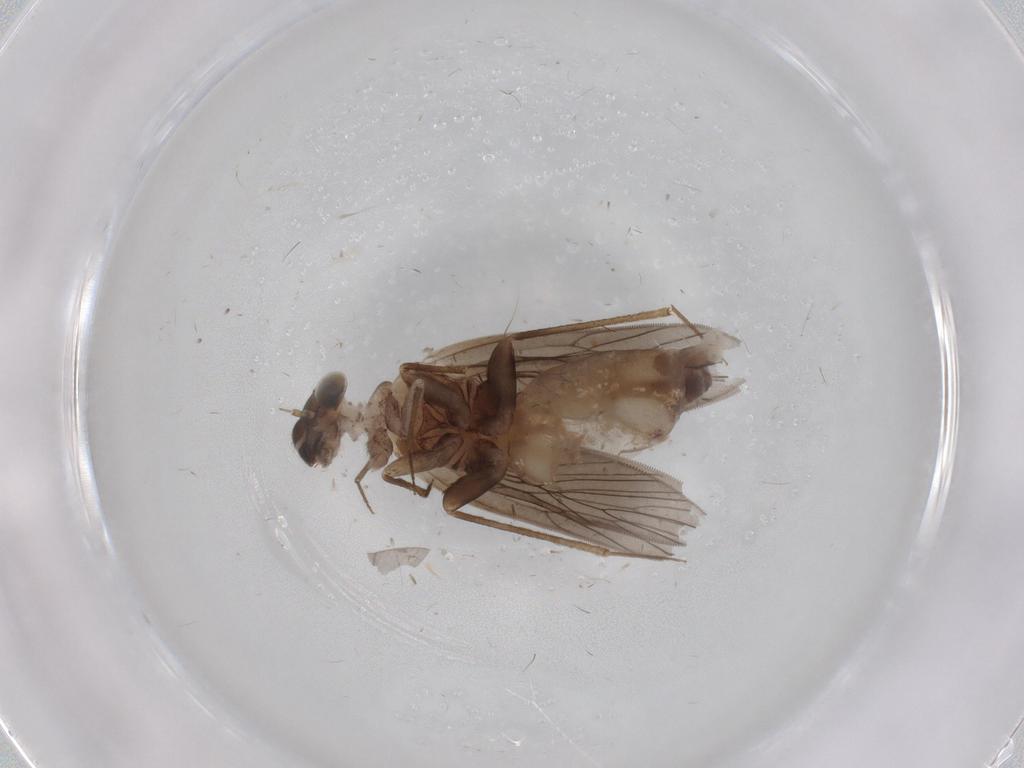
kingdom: Animalia
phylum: Arthropoda
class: Insecta
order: Psocodea
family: Lepidopsocidae
